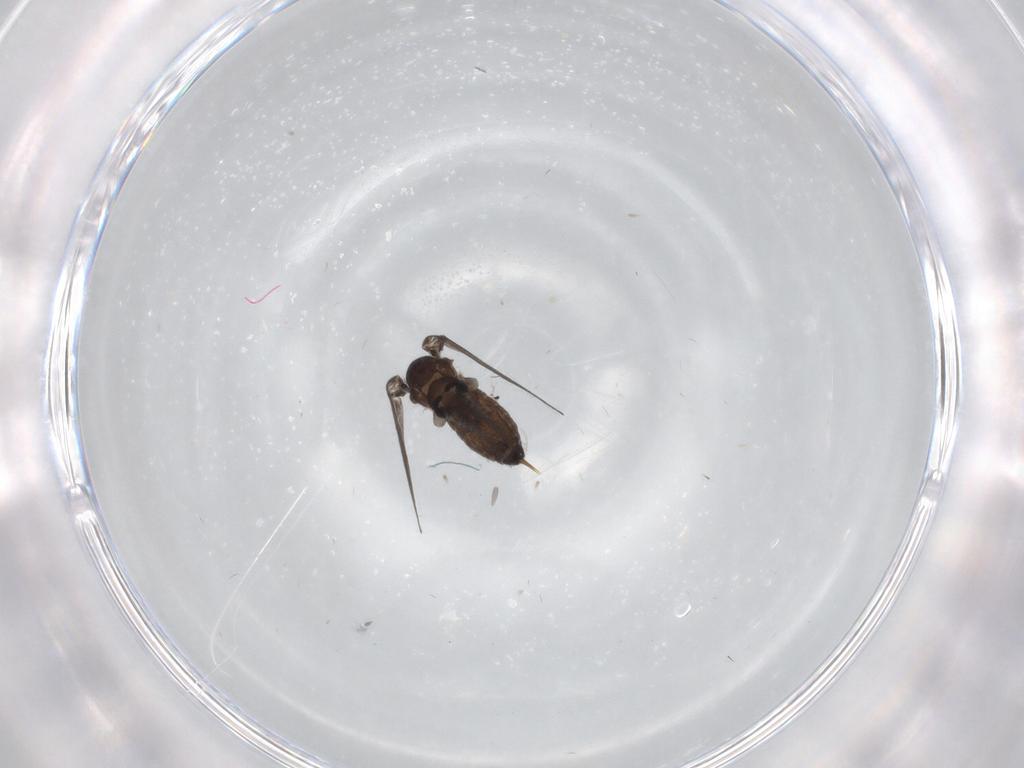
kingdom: Animalia
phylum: Arthropoda
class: Insecta
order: Diptera
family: Psychodidae
